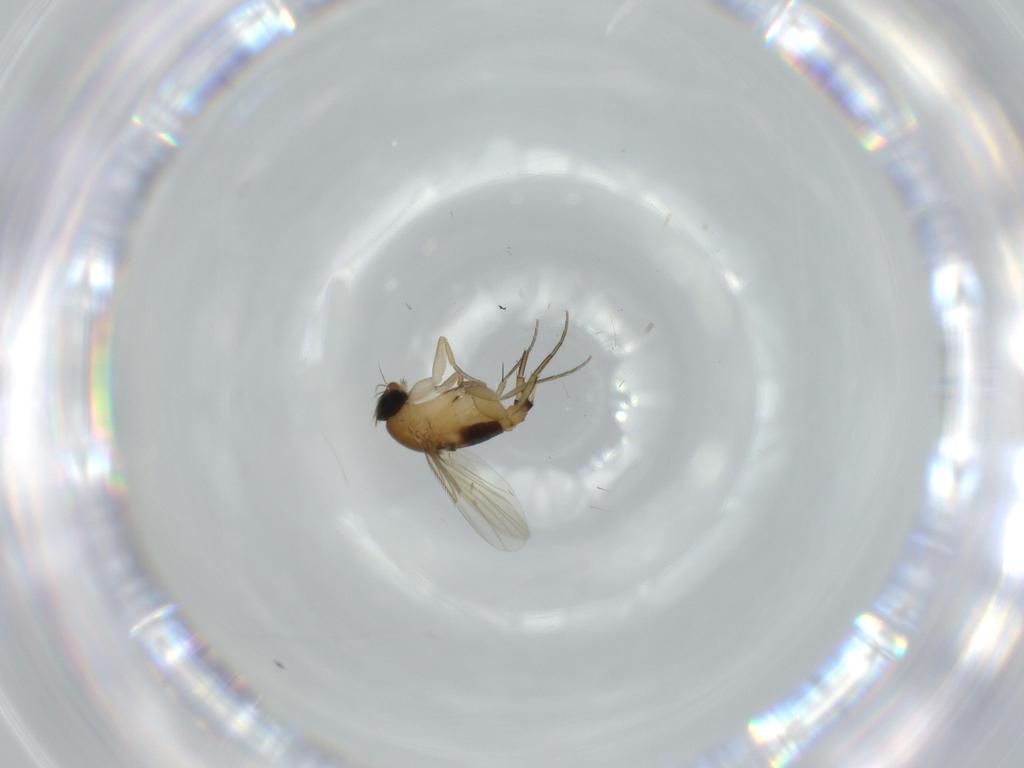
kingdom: Animalia
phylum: Arthropoda
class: Insecta
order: Diptera
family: Phoridae
